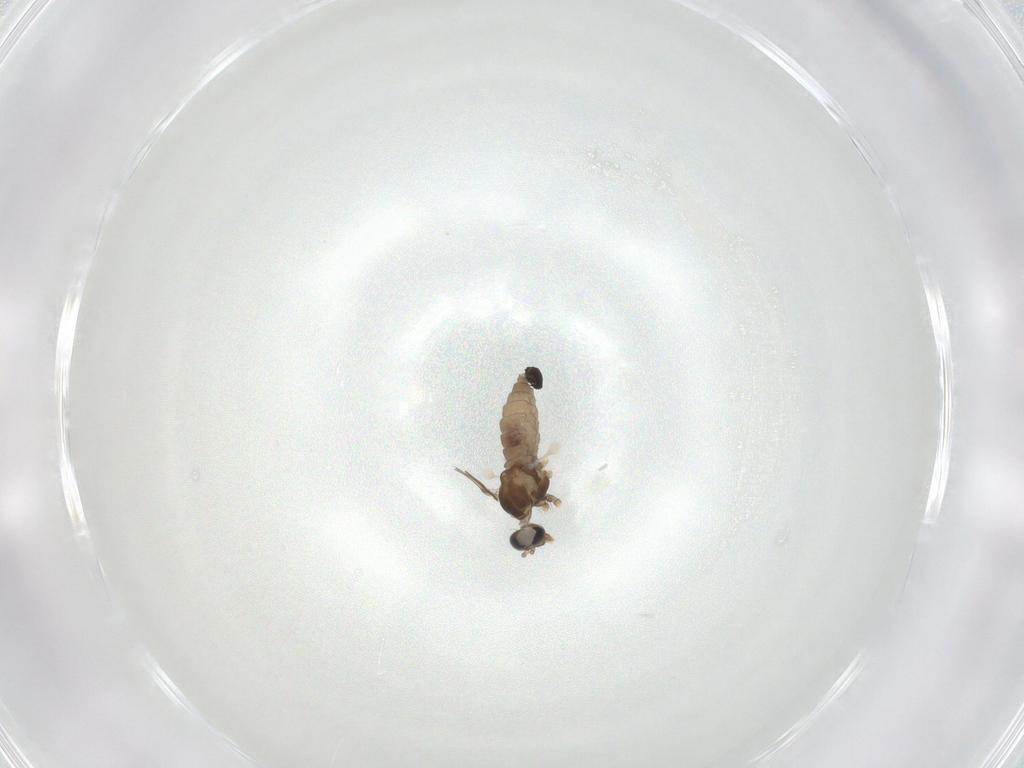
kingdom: Animalia
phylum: Arthropoda
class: Insecta
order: Diptera
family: Cecidomyiidae
